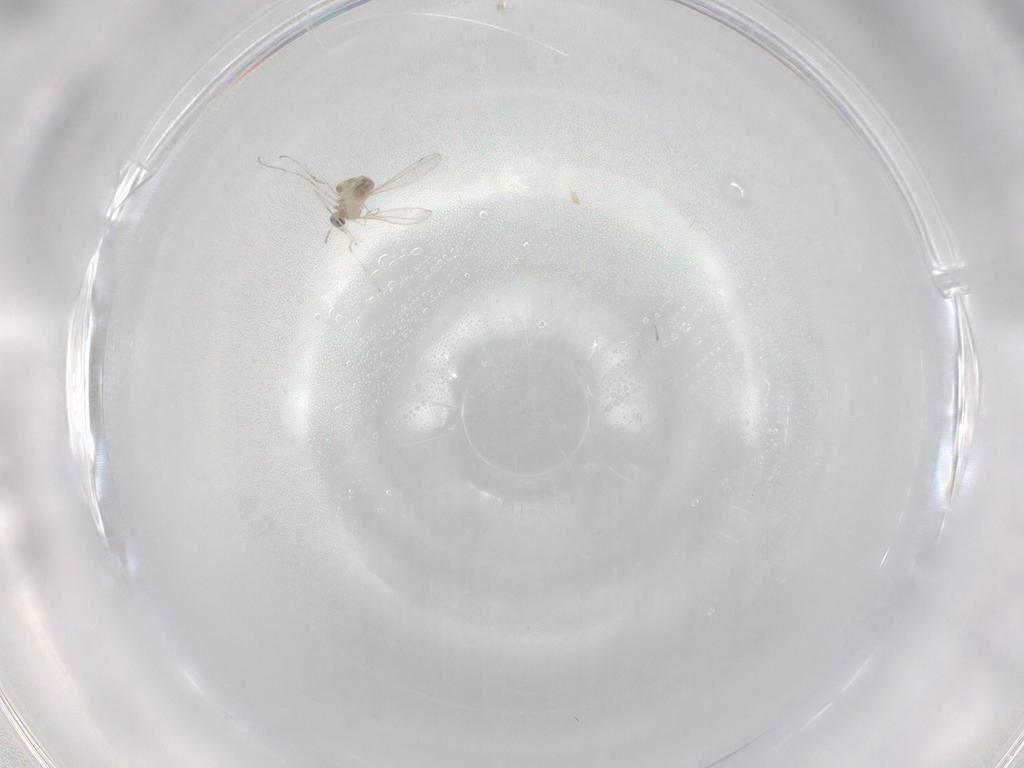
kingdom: Animalia
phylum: Arthropoda
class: Insecta
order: Diptera
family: Cecidomyiidae
